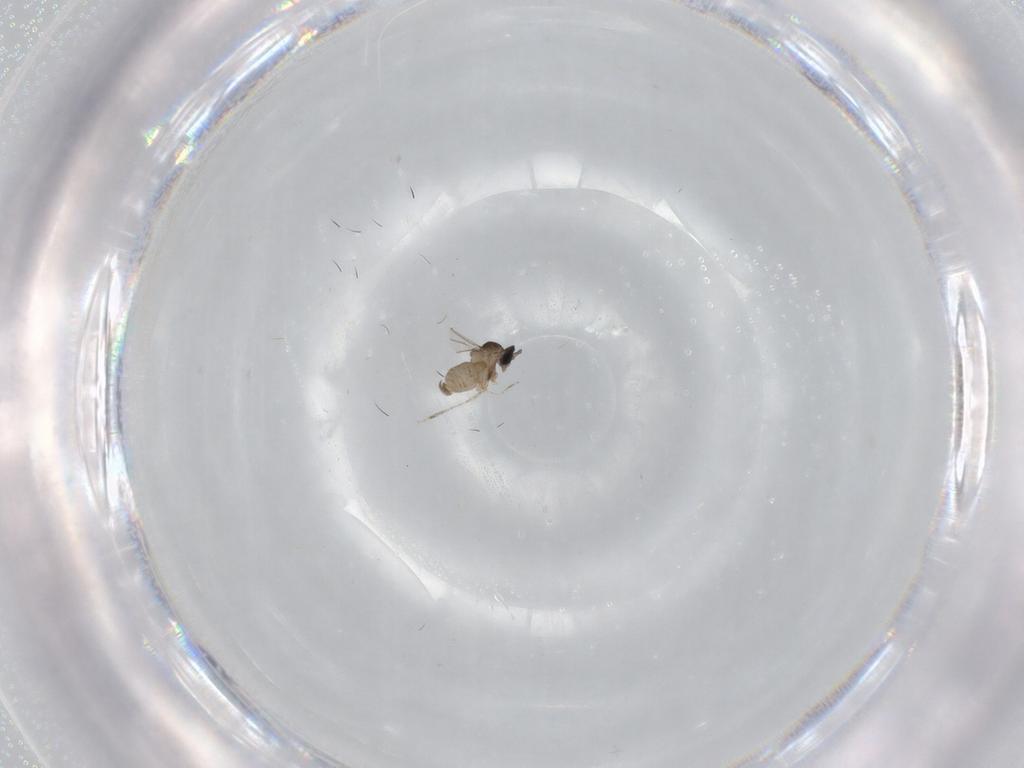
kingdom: Animalia
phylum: Arthropoda
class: Insecta
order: Diptera
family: Cecidomyiidae
